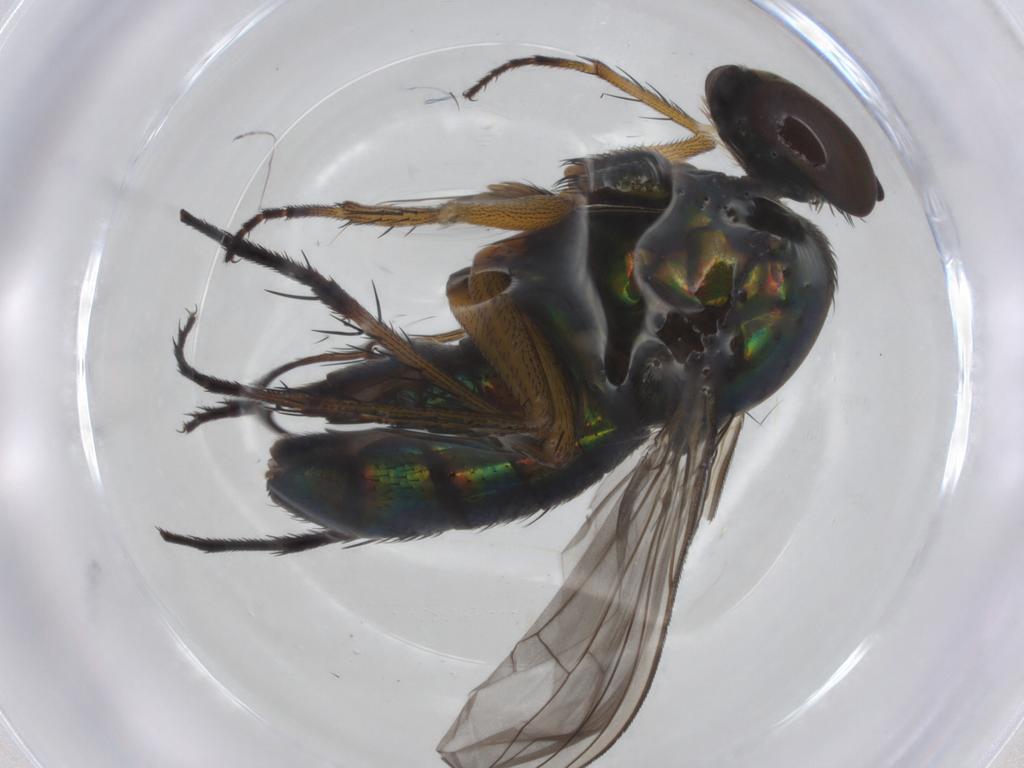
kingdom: Animalia
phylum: Arthropoda
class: Insecta
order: Diptera
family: Dolichopodidae
